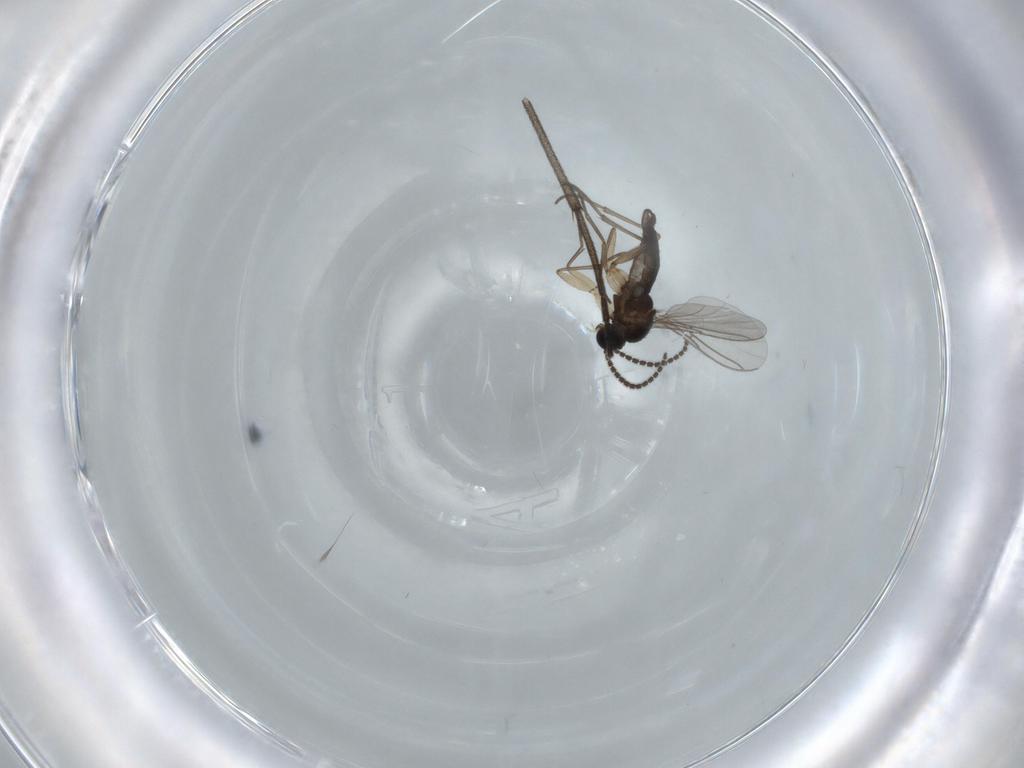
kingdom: Animalia
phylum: Arthropoda
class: Insecta
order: Diptera
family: Sciaridae
